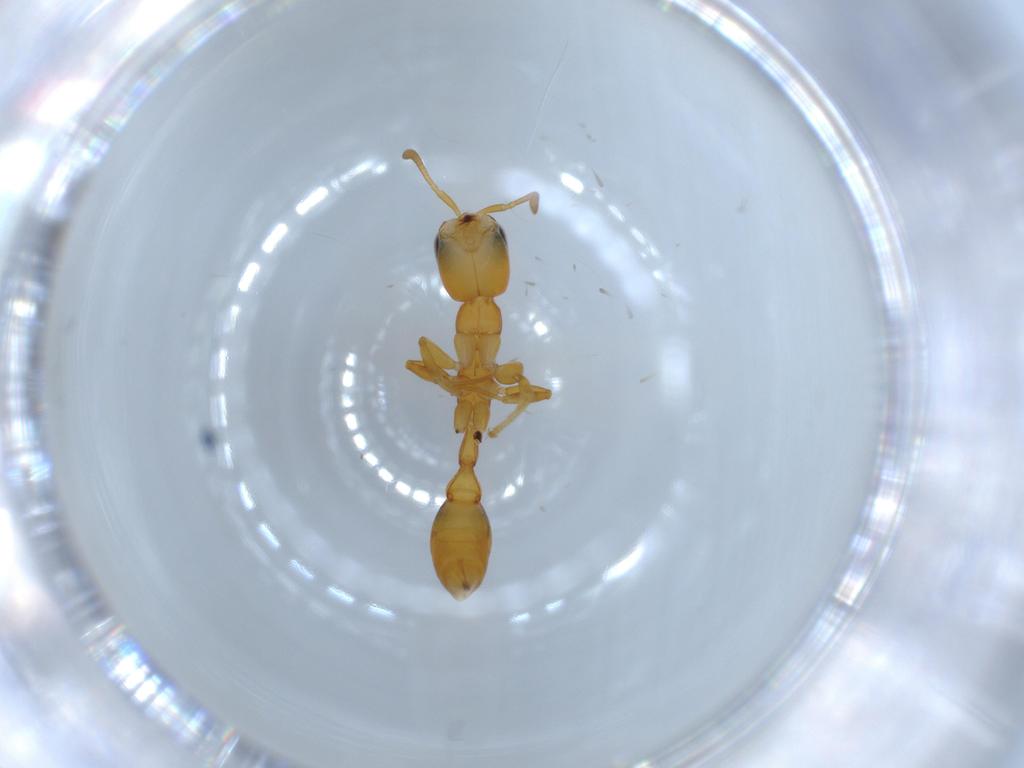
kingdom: Animalia
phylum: Arthropoda
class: Insecta
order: Hymenoptera
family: Formicidae
